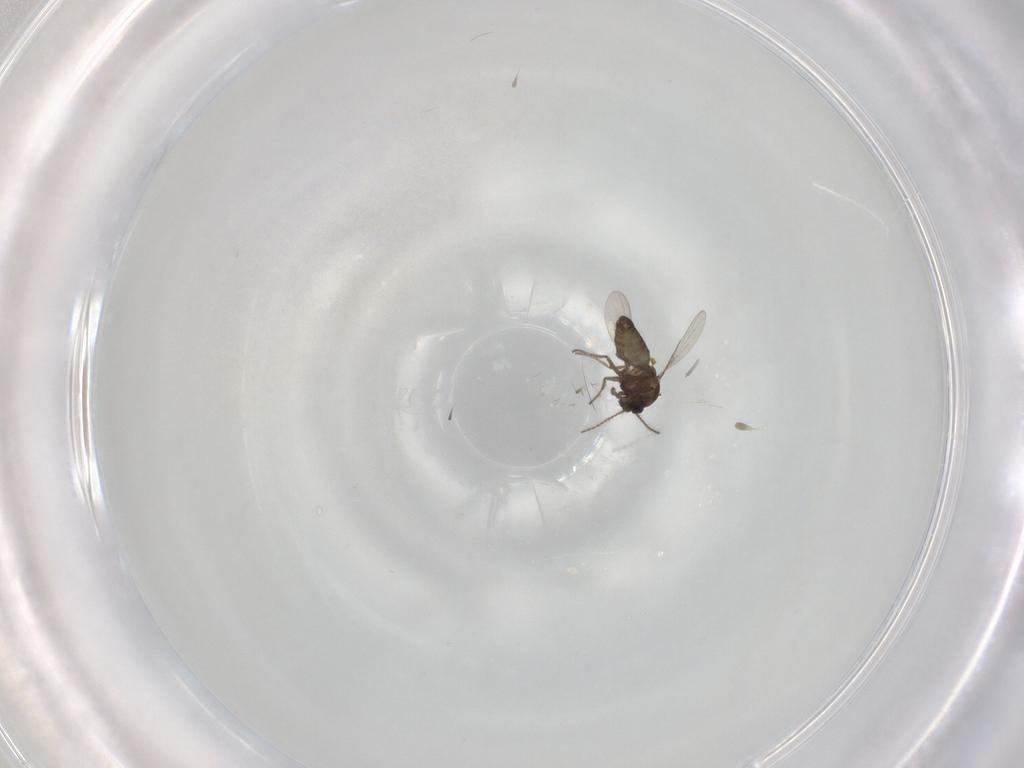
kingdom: Animalia
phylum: Arthropoda
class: Insecta
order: Diptera
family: Ceratopogonidae
